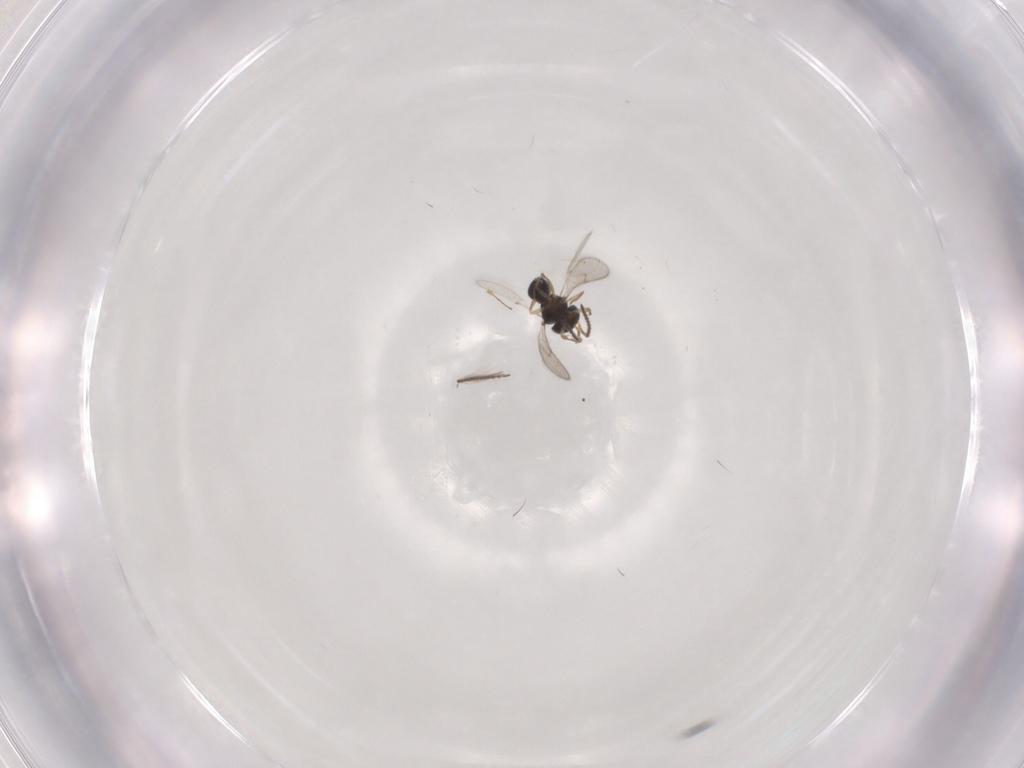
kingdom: Animalia
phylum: Arthropoda
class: Insecta
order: Hymenoptera
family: Scelionidae
